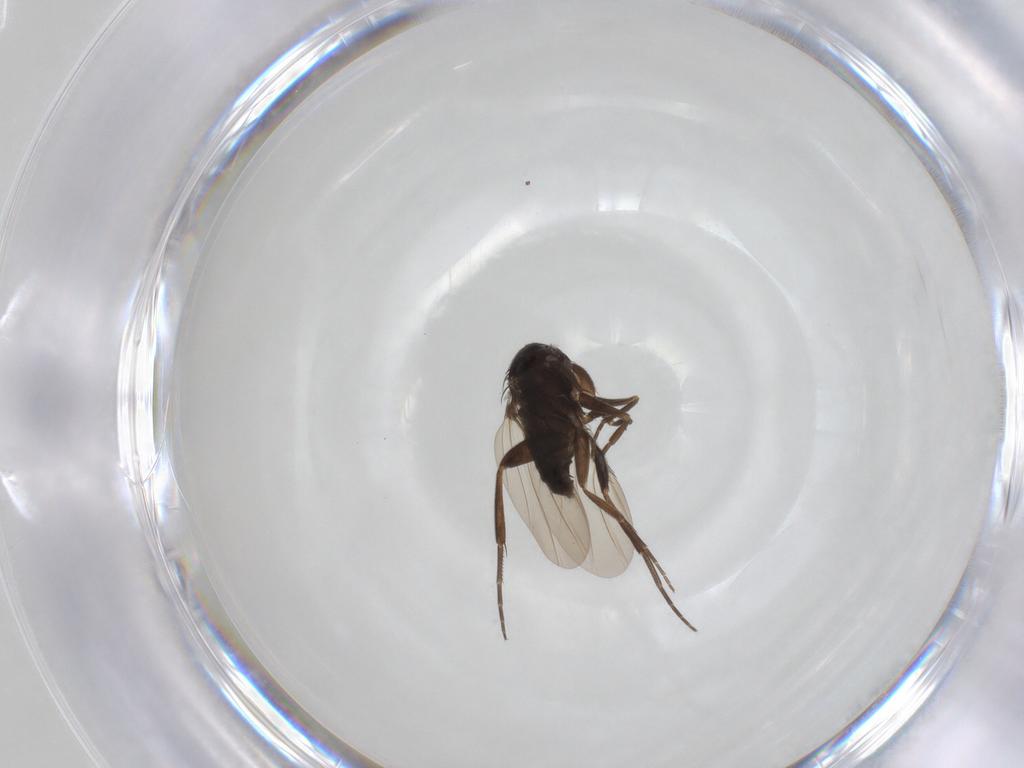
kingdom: Animalia
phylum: Arthropoda
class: Insecta
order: Diptera
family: Phoridae
